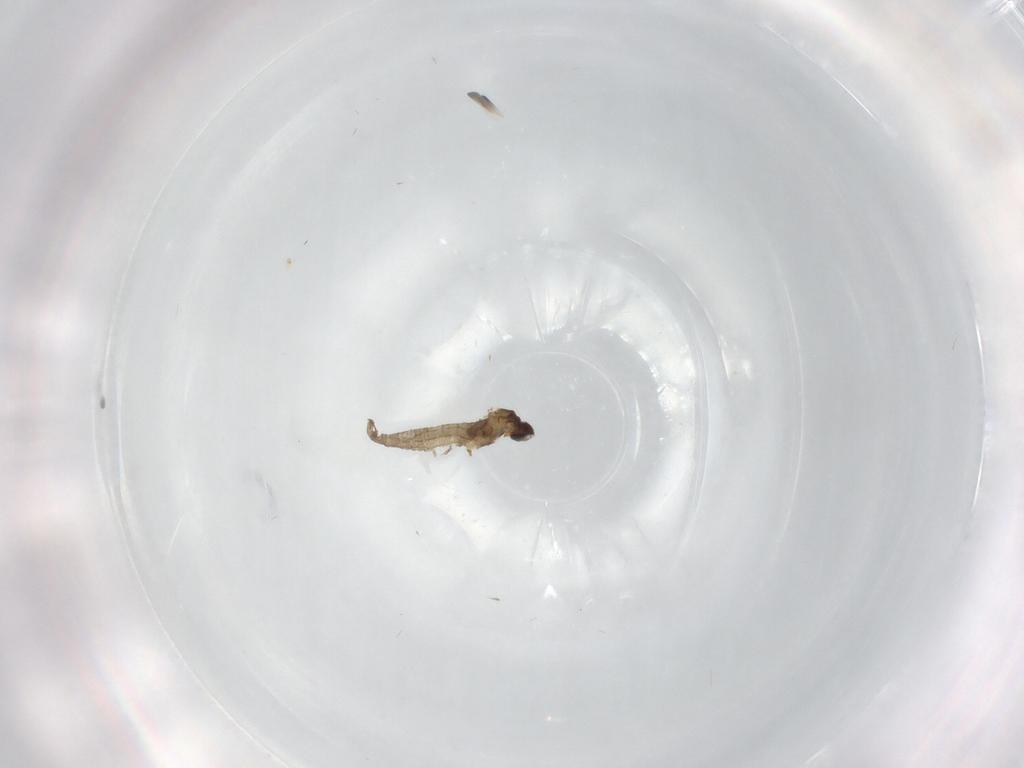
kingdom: Animalia
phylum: Arthropoda
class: Insecta
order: Diptera
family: Cecidomyiidae
